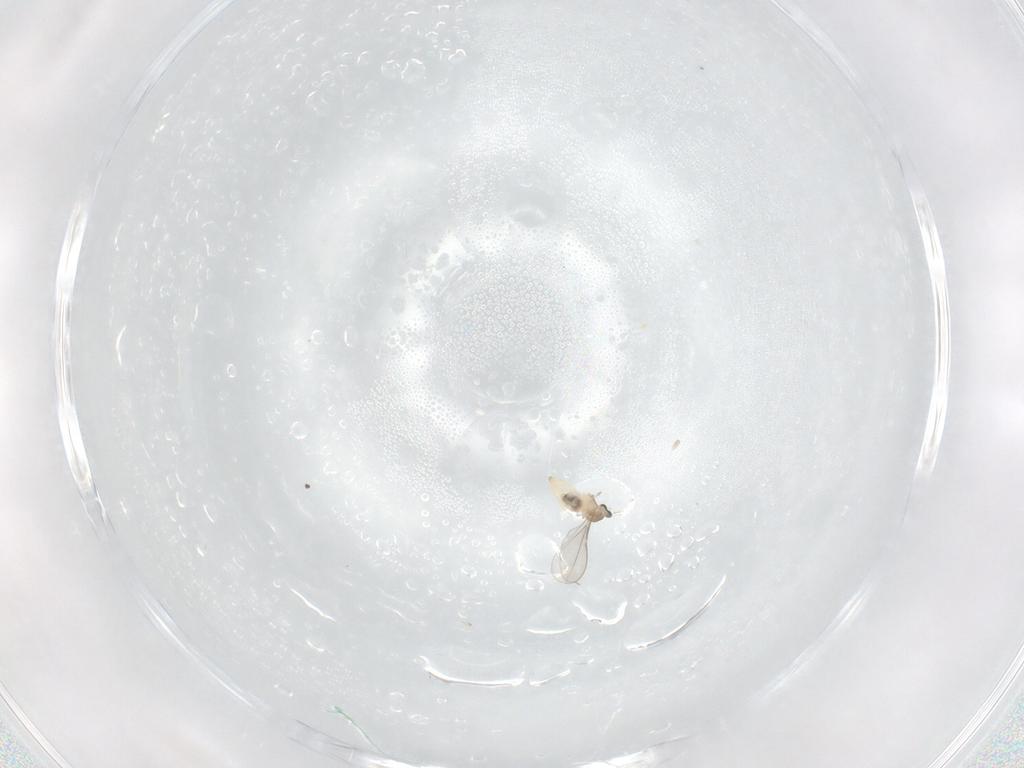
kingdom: Animalia
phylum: Arthropoda
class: Insecta
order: Diptera
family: Cecidomyiidae
